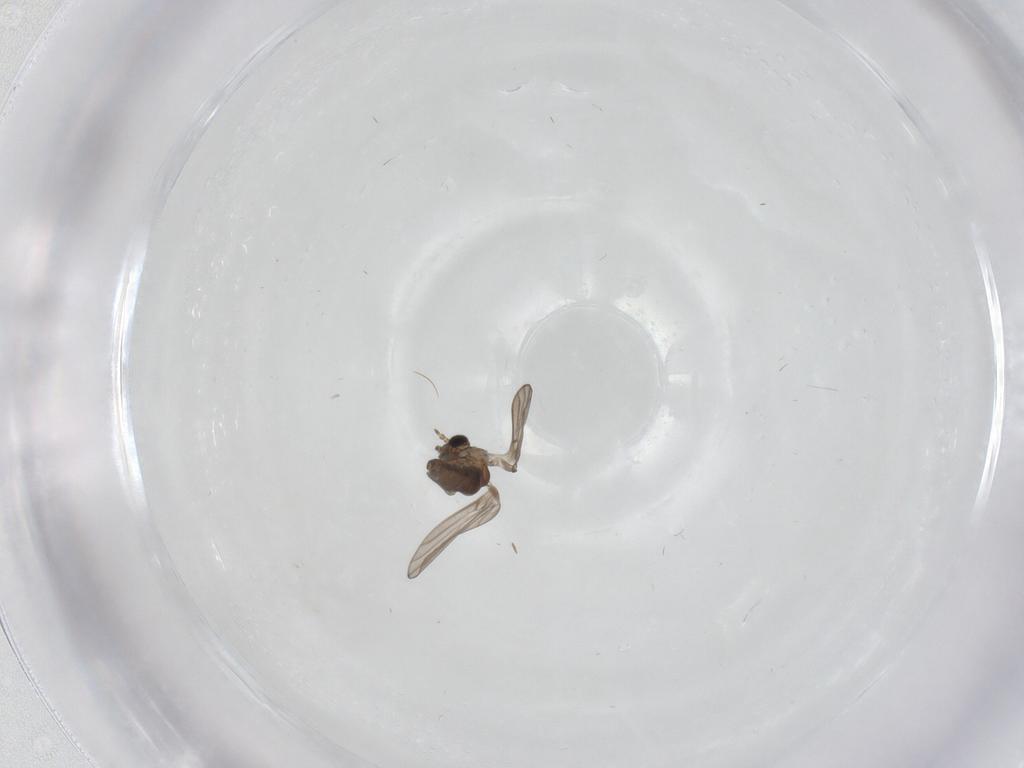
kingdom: Animalia
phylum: Arthropoda
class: Insecta
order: Diptera
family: Psychodidae
